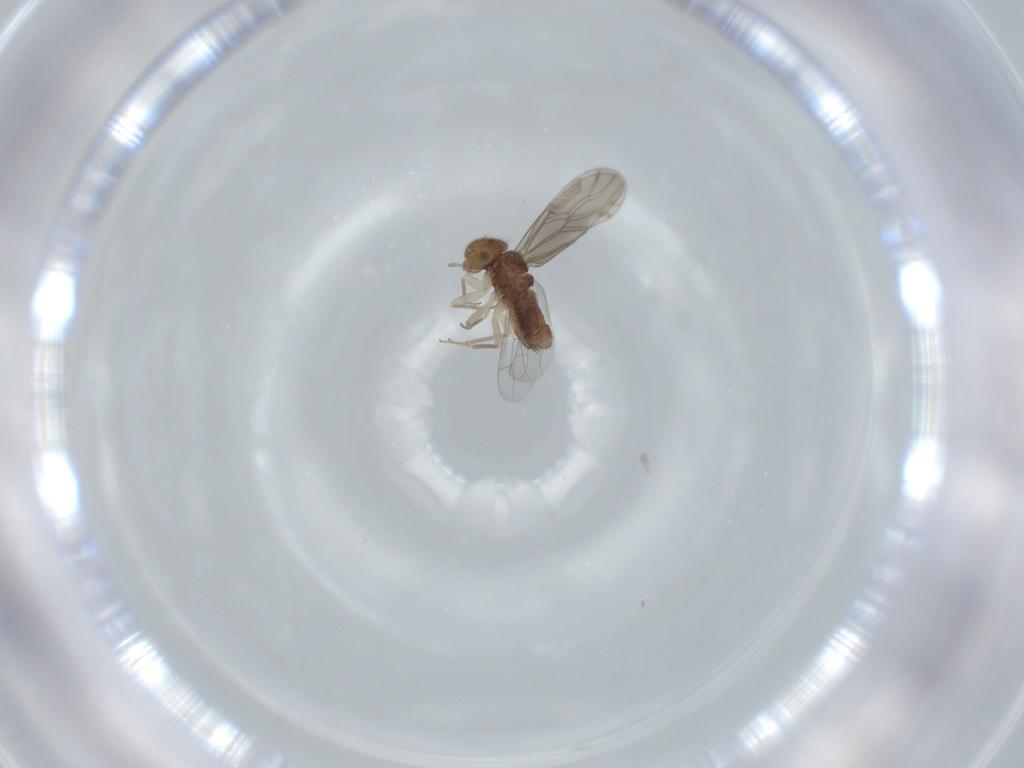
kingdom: Animalia
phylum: Arthropoda
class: Insecta
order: Psocodea
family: Ectopsocidae
